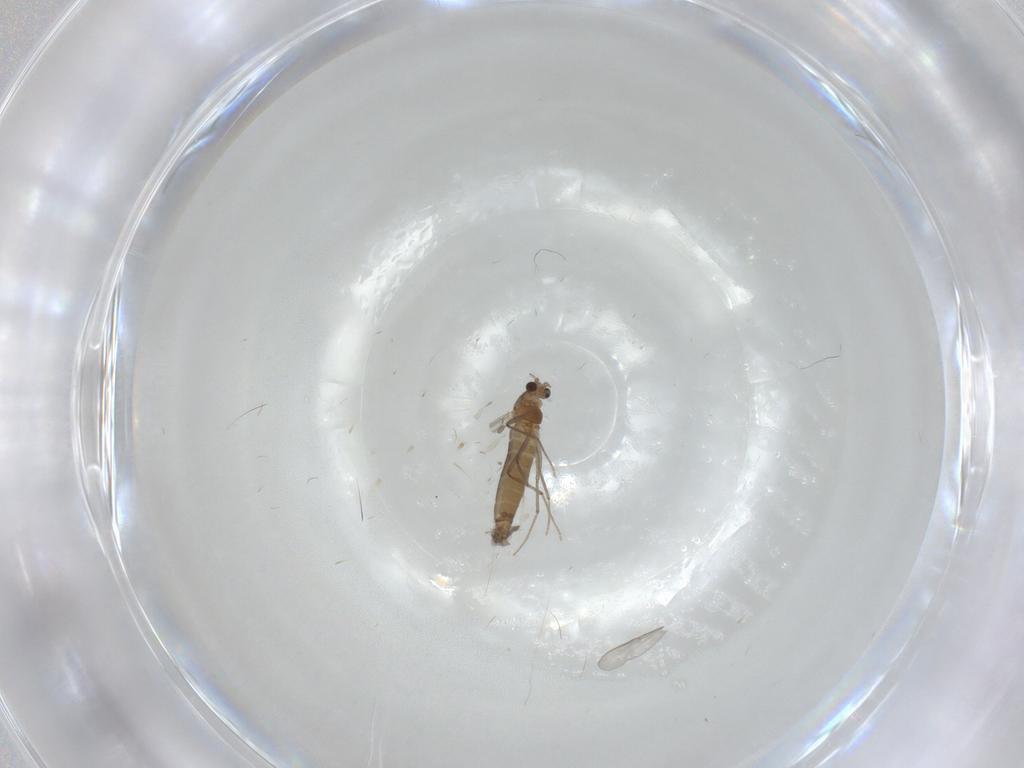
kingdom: Animalia
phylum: Arthropoda
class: Insecta
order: Diptera
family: Chironomidae
